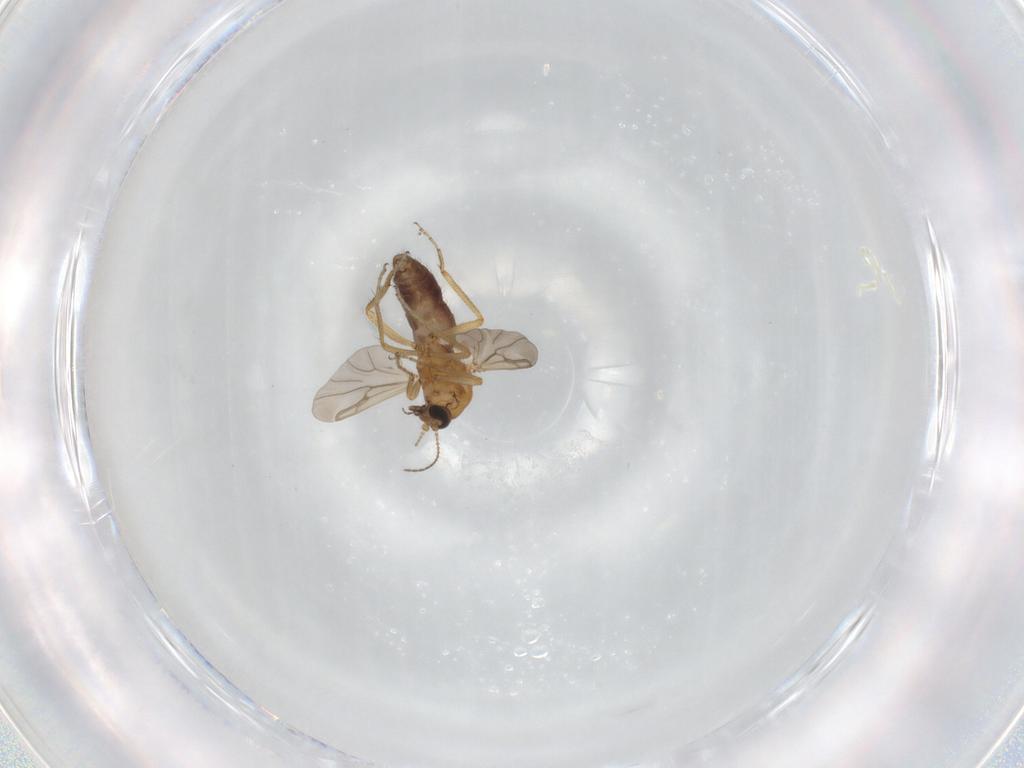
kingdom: Animalia
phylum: Arthropoda
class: Insecta
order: Diptera
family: Ceratopogonidae
